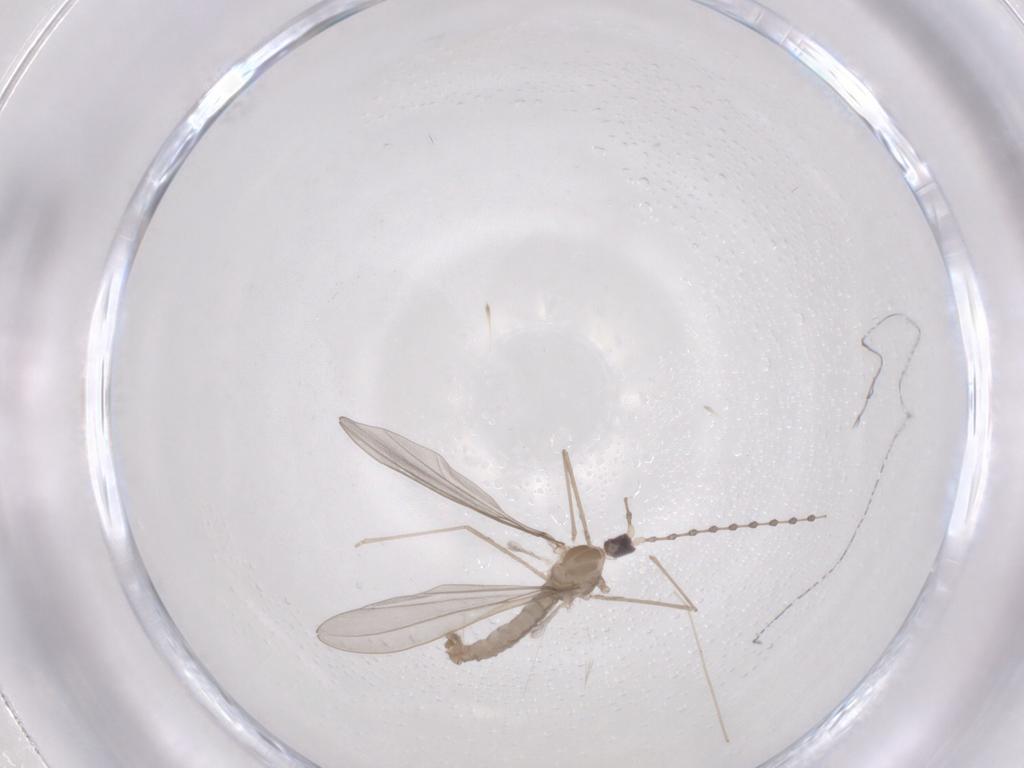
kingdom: Animalia
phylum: Arthropoda
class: Insecta
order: Diptera
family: Cecidomyiidae
